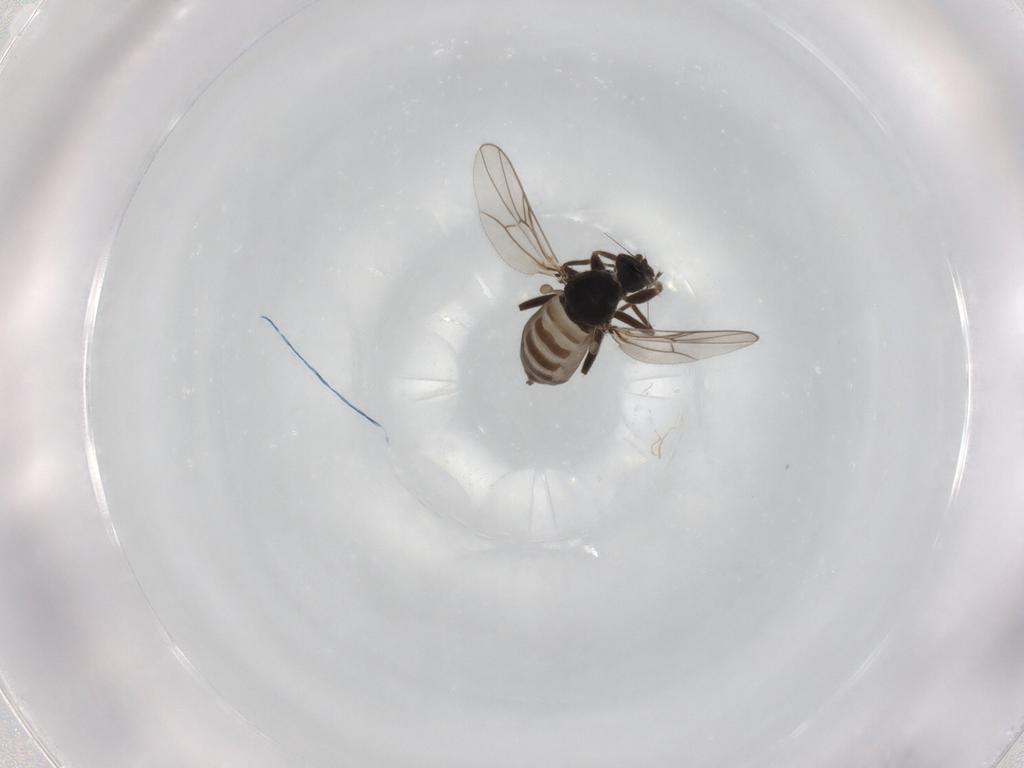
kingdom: Animalia
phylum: Arthropoda
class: Insecta
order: Diptera
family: Hybotidae
